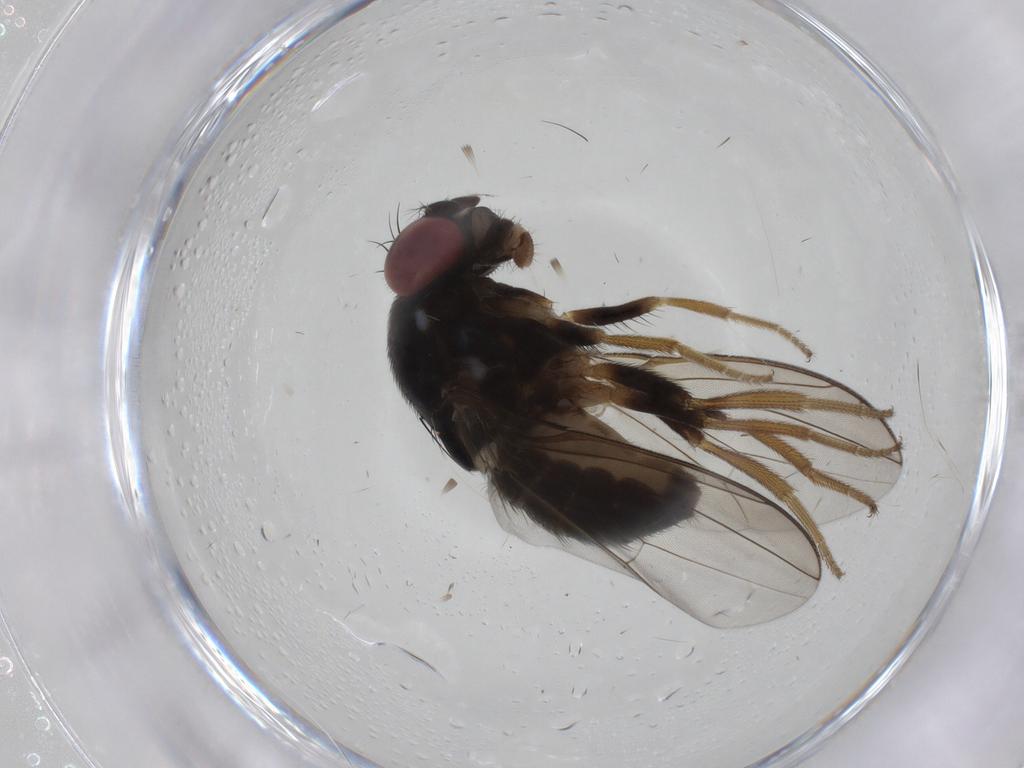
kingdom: Animalia
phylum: Arthropoda
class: Insecta
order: Diptera
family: Drosophilidae
